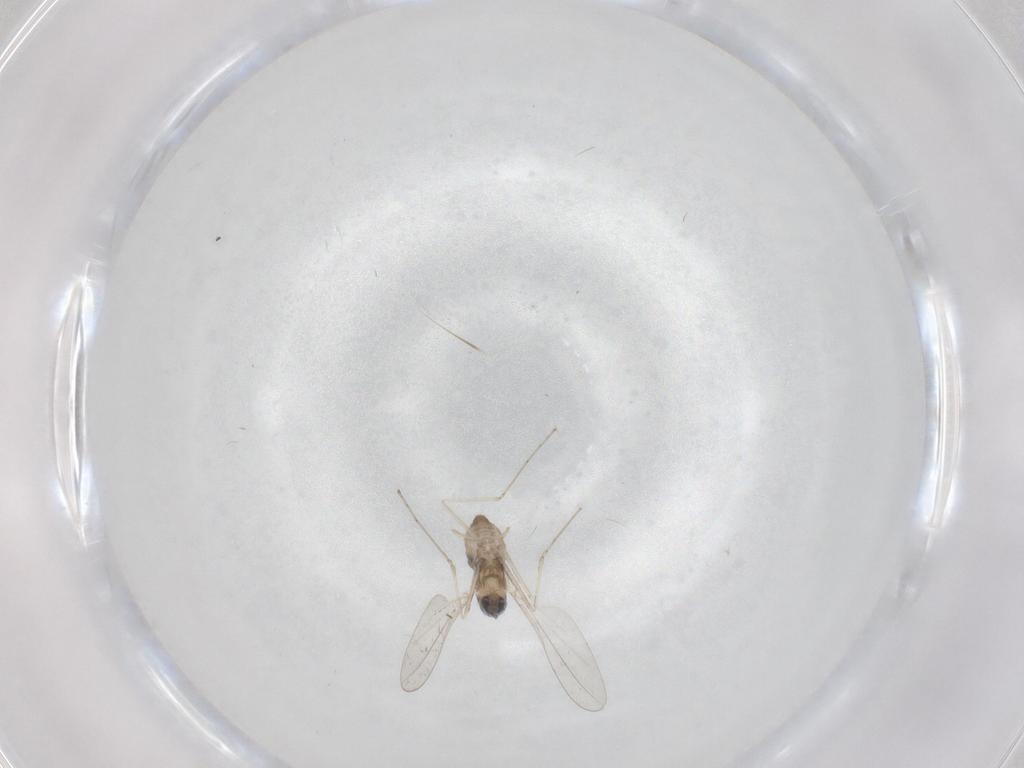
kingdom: Animalia
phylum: Arthropoda
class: Insecta
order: Diptera
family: Cecidomyiidae
